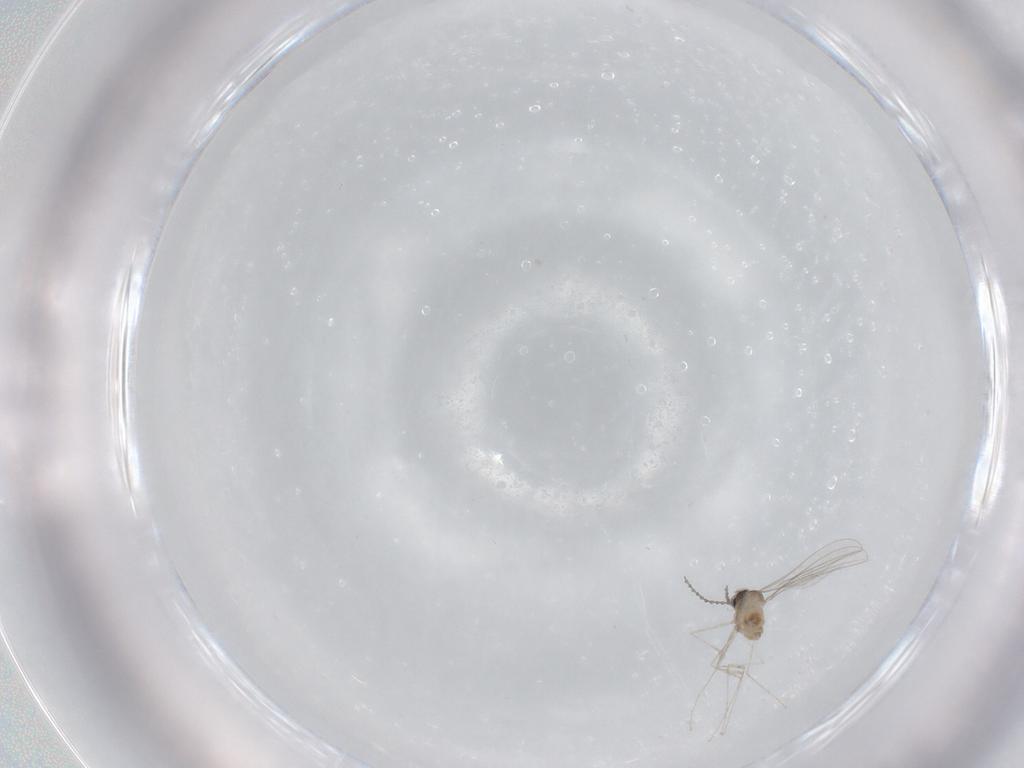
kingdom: Animalia
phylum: Arthropoda
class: Insecta
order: Diptera
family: Cecidomyiidae
